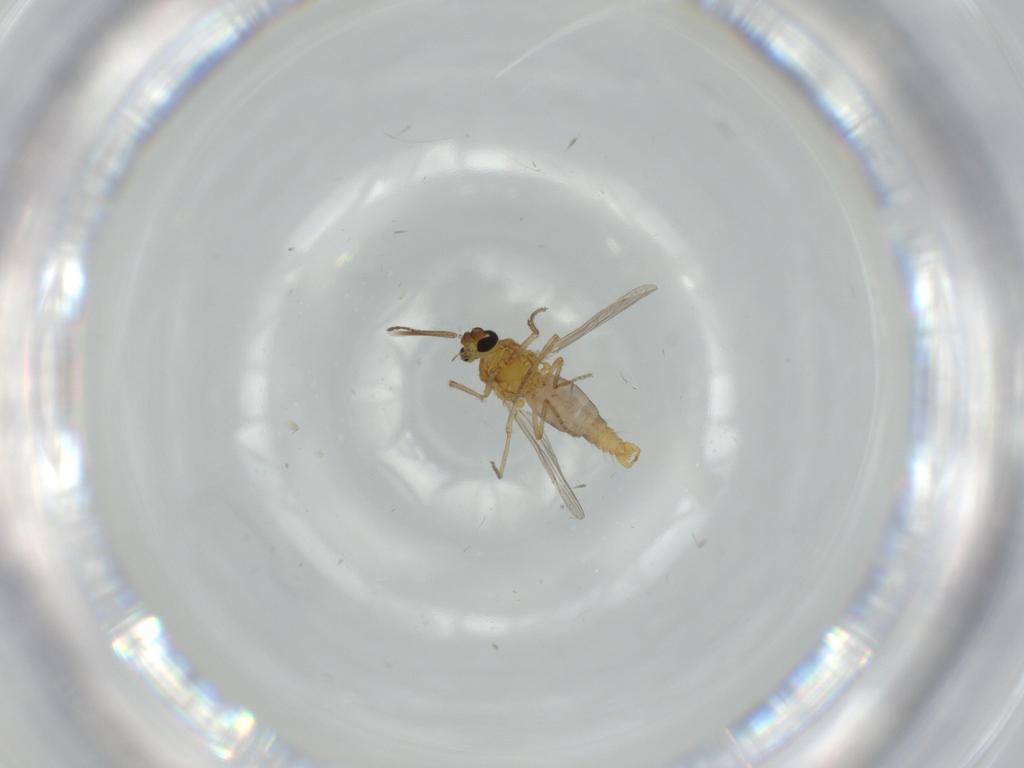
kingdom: Animalia
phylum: Arthropoda
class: Insecta
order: Diptera
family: Ceratopogonidae
